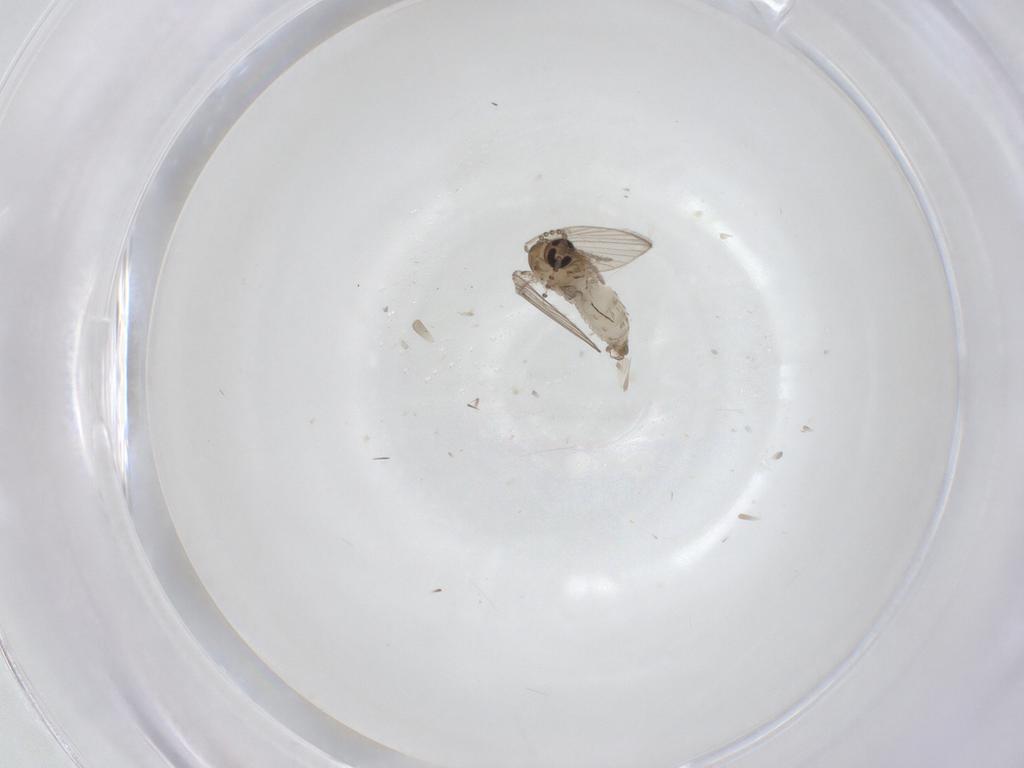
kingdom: Animalia
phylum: Arthropoda
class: Insecta
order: Diptera
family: Psychodidae
